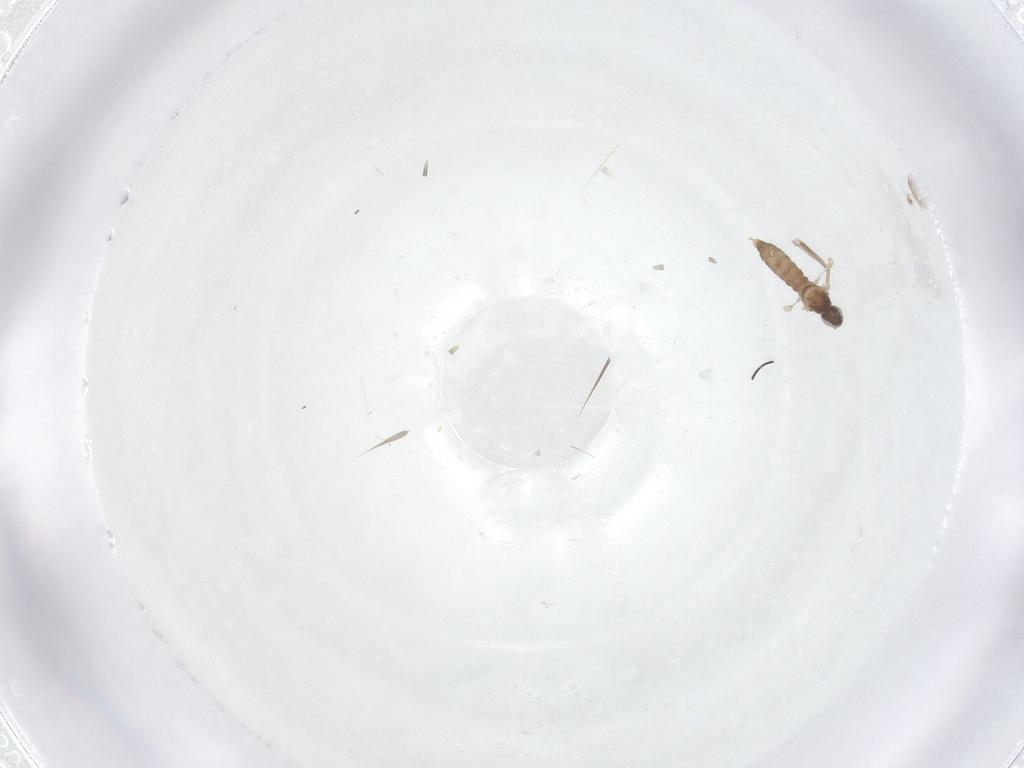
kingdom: Animalia
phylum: Arthropoda
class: Insecta
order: Diptera
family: Cecidomyiidae
